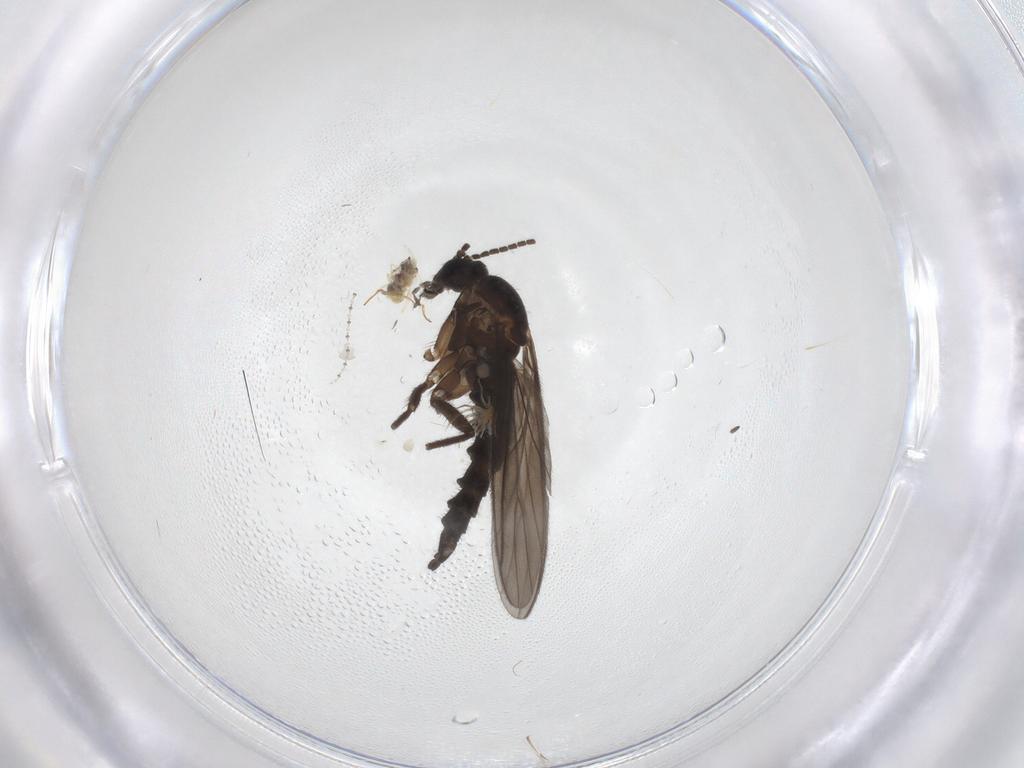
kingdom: Animalia
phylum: Arthropoda
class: Insecta
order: Diptera
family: Sciaridae
